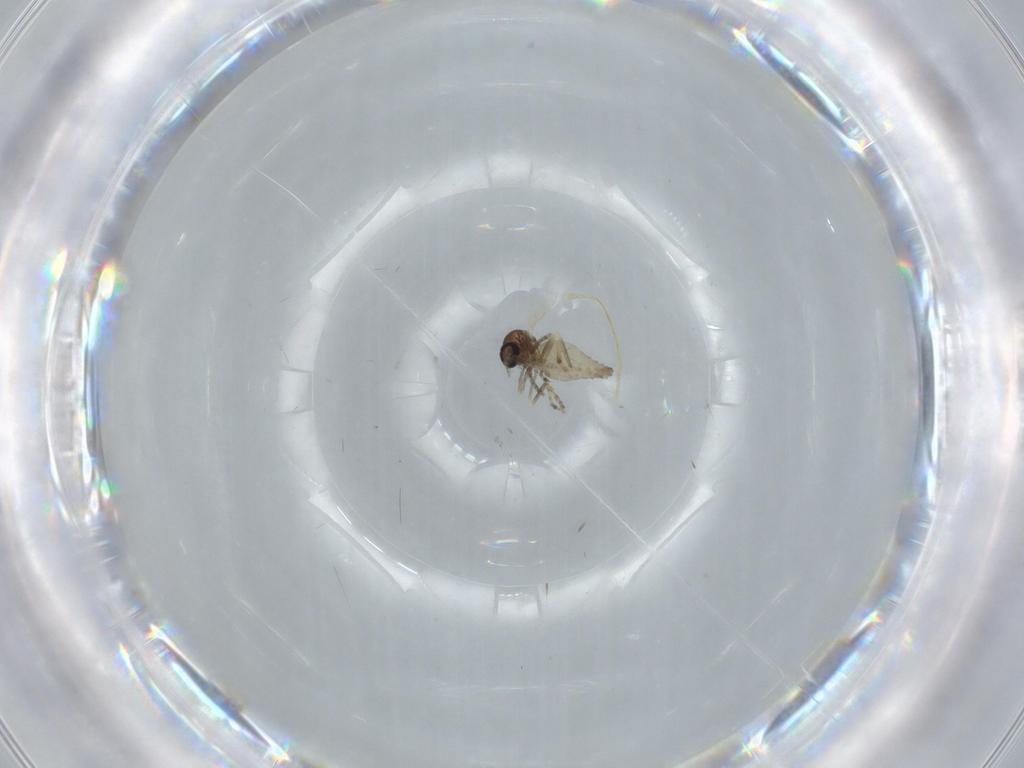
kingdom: Animalia
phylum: Arthropoda
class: Insecta
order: Diptera
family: Ceratopogonidae
